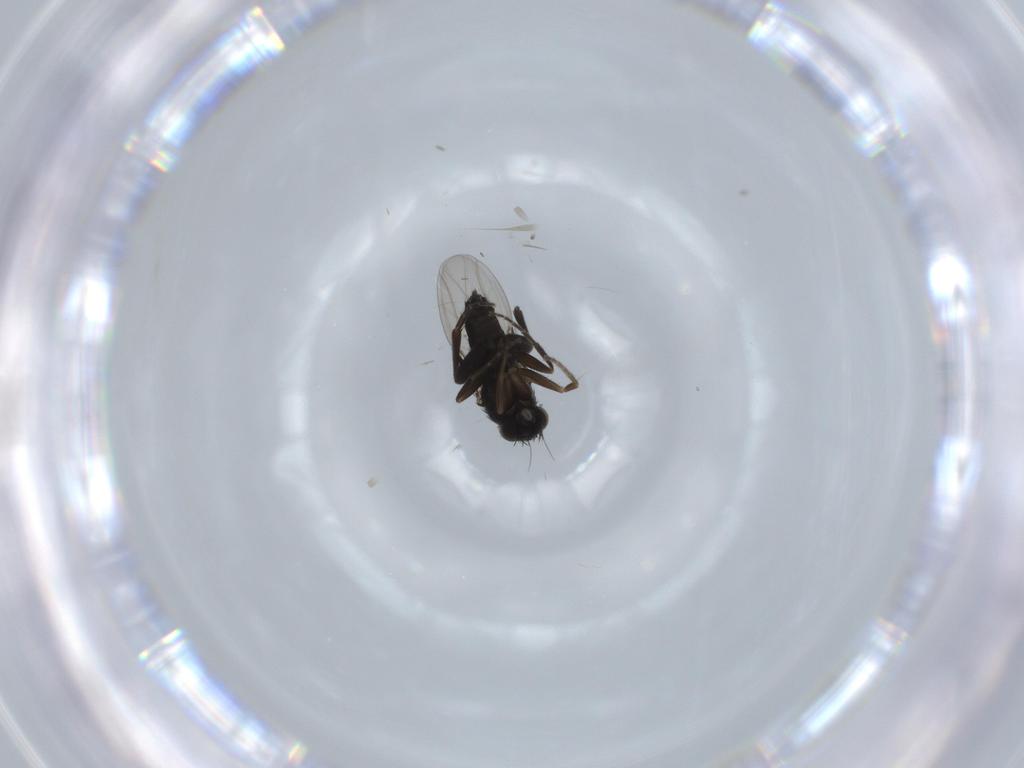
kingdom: Animalia
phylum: Arthropoda
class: Insecta
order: Diptera
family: Phoridae
